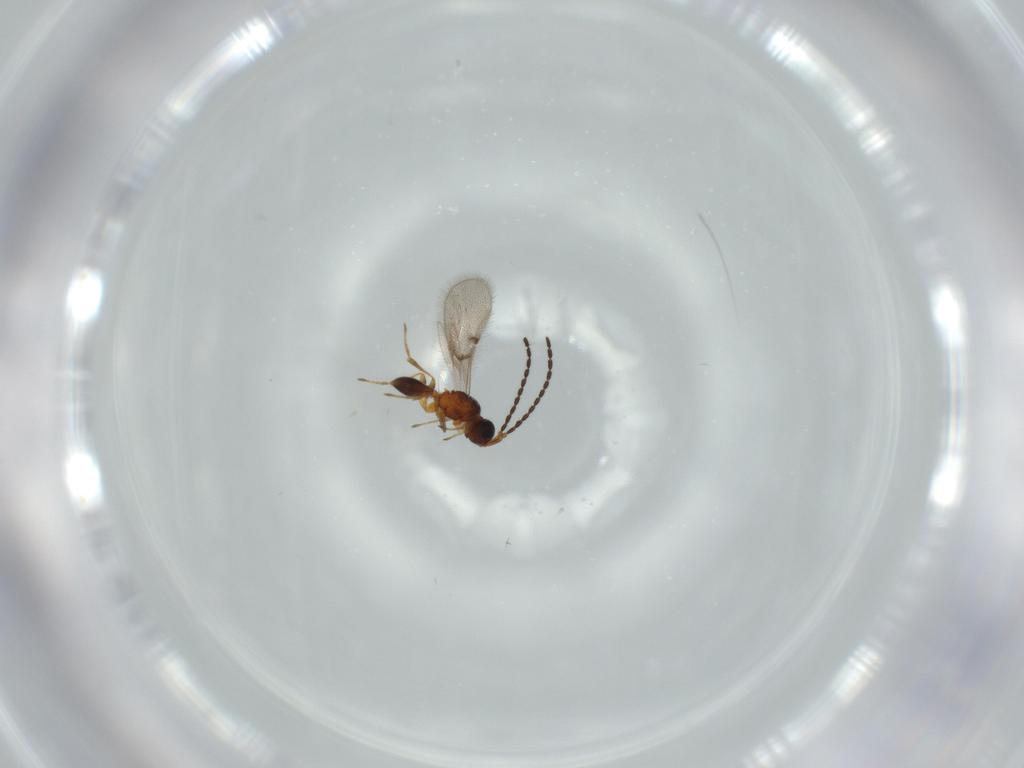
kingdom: Animalia
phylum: Arthropoda
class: Insecta
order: Hymenoptera
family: Diapriidae
